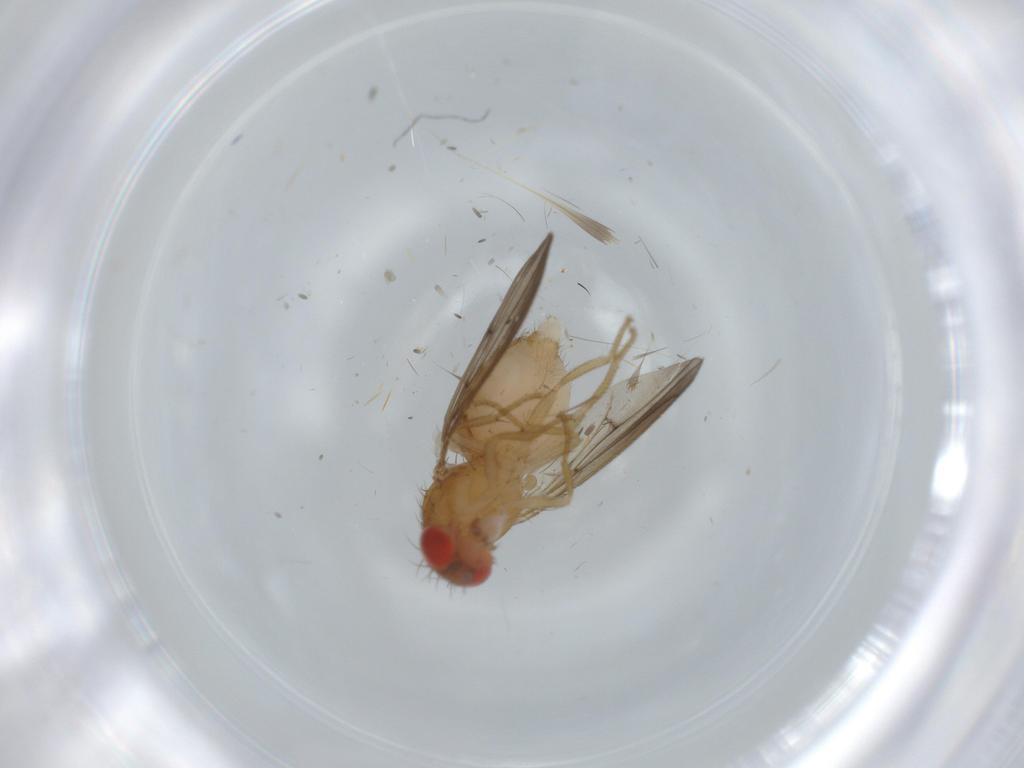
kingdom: Animalia
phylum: Arthropoda
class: Insecta
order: Diptera
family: Drosophilidae
